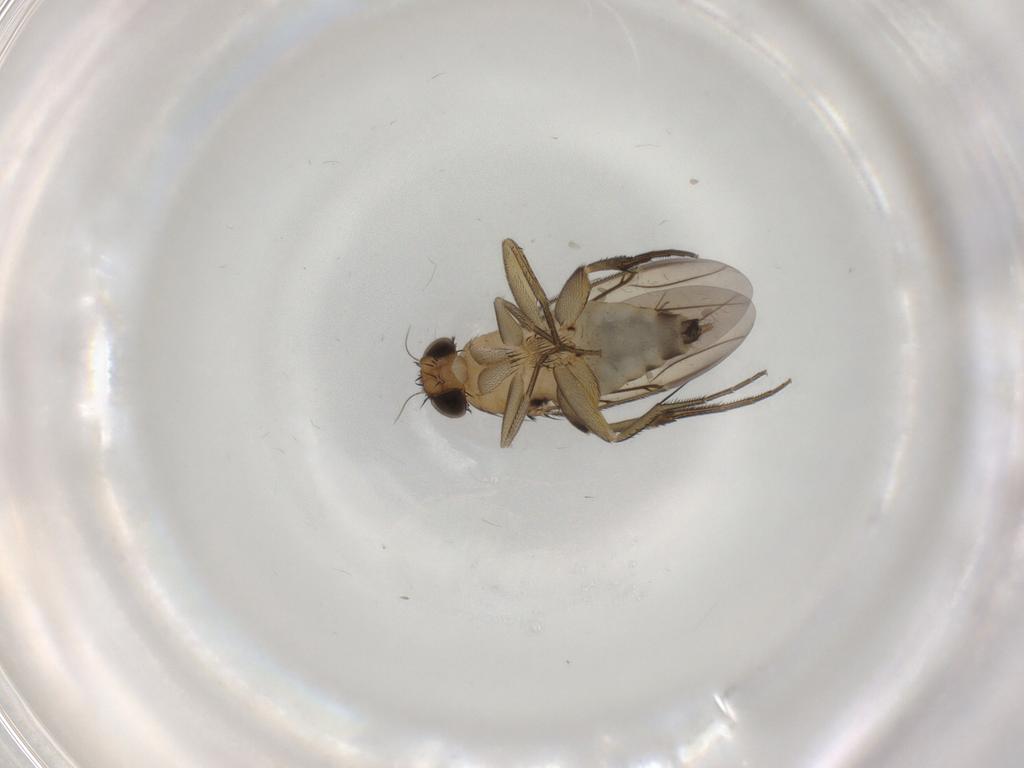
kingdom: Animalia
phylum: Arthropoda
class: Insecta
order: Diptera
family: Phoridae
